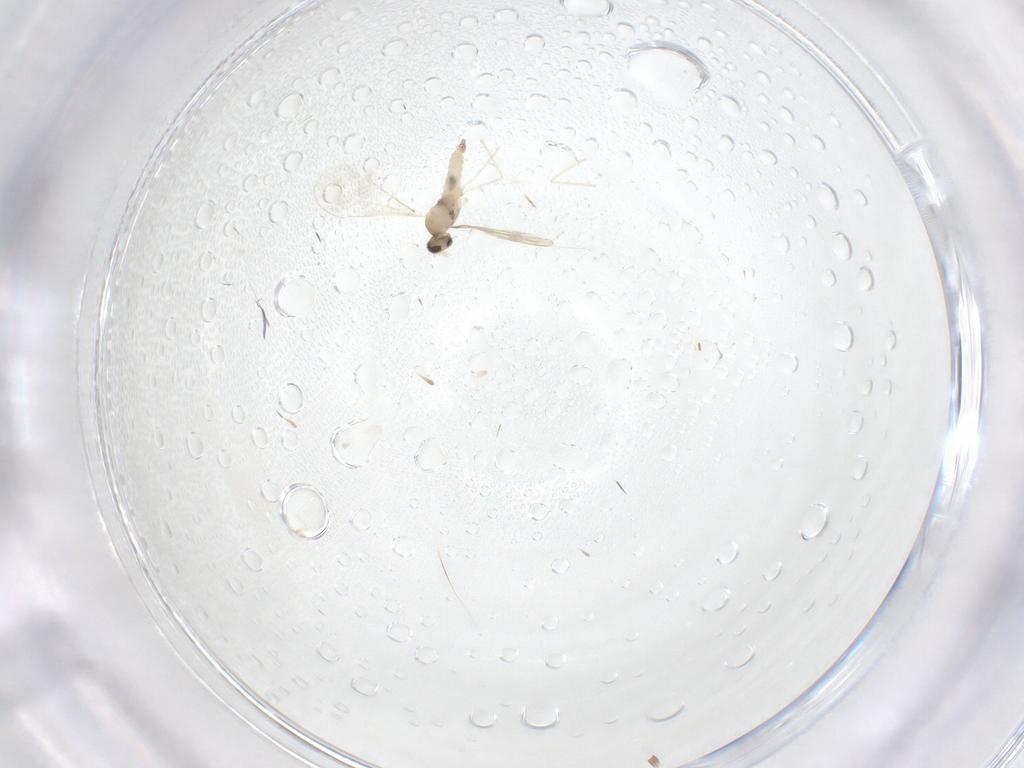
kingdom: Animalia
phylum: Arthropoda
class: Insecta
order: Diptera
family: Cecidomyiidae
